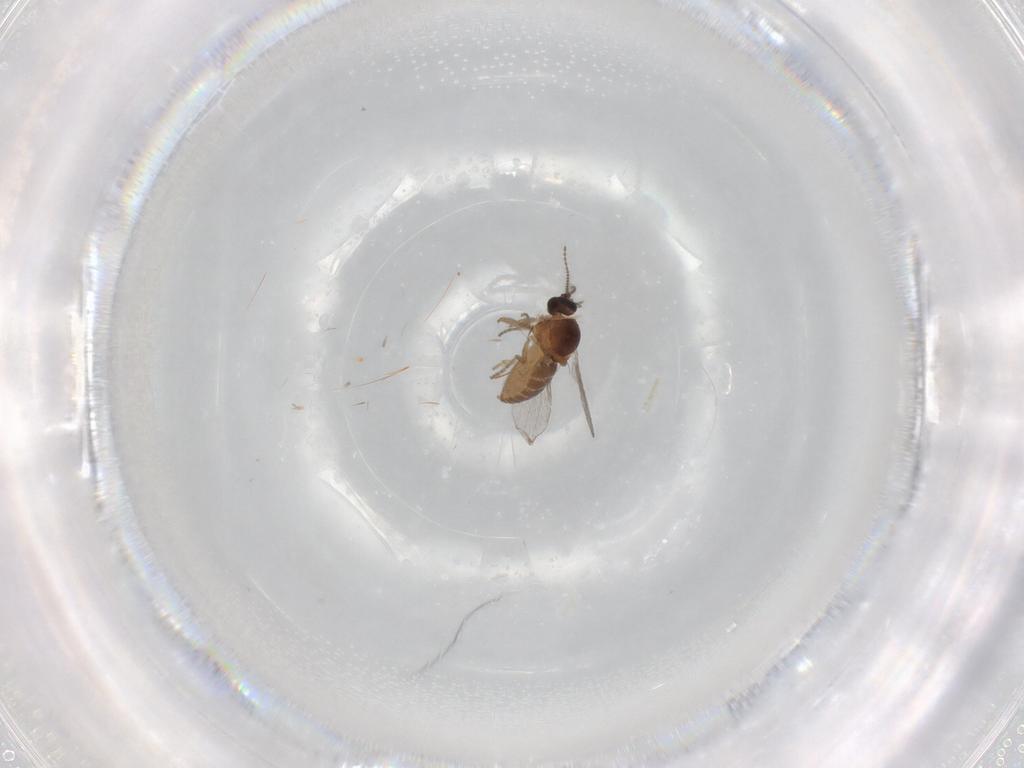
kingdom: Animalia
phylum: Arthropoda
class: Insecta
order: Diptera
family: Ceratopogonidae
